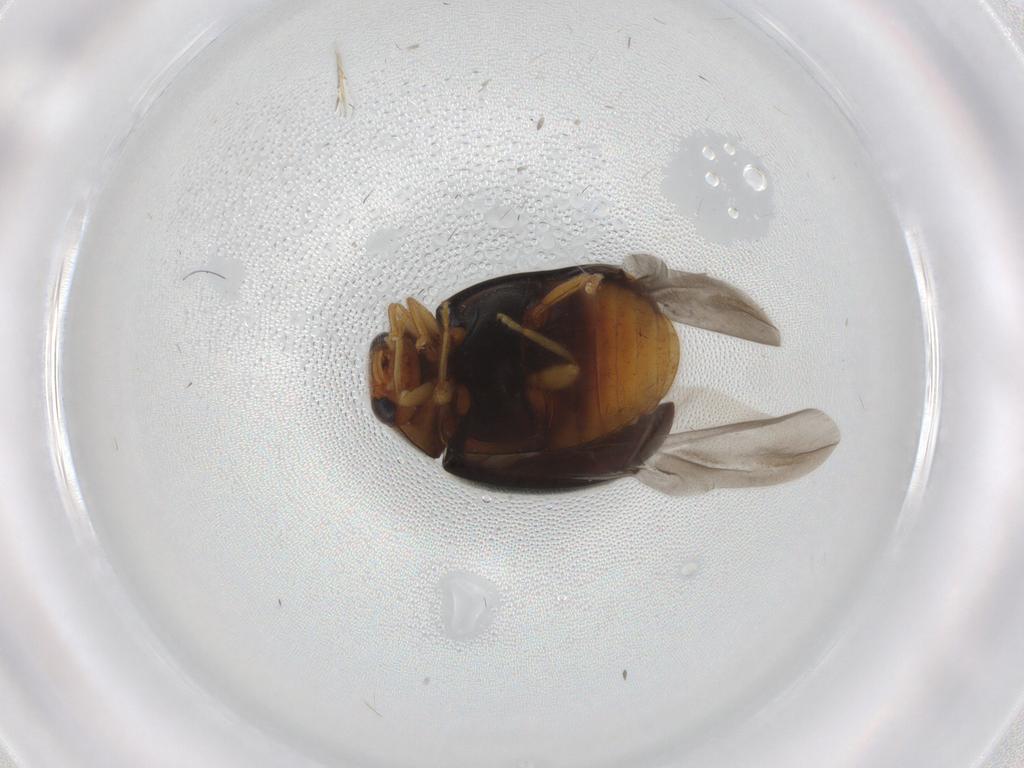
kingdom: Animalia
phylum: Arthropoda
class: Insecta
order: Coleoptera
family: Coccinellidae
